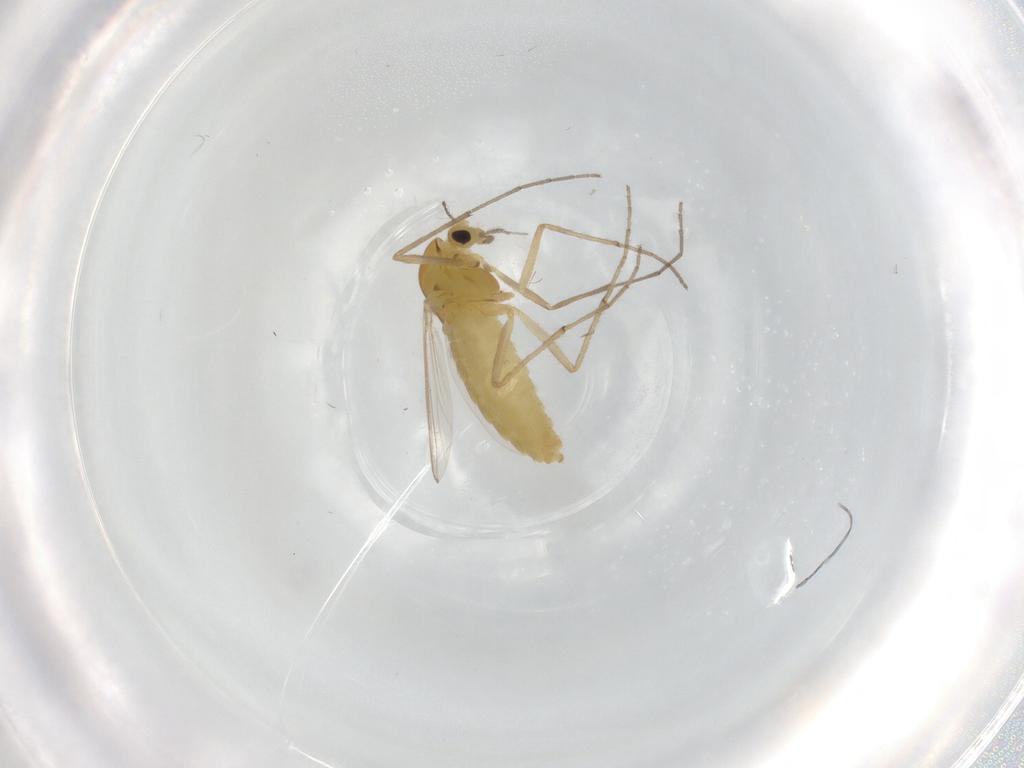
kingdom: Animalia
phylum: Arthropoda
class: Insecta
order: Diptera
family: Chironomidae
